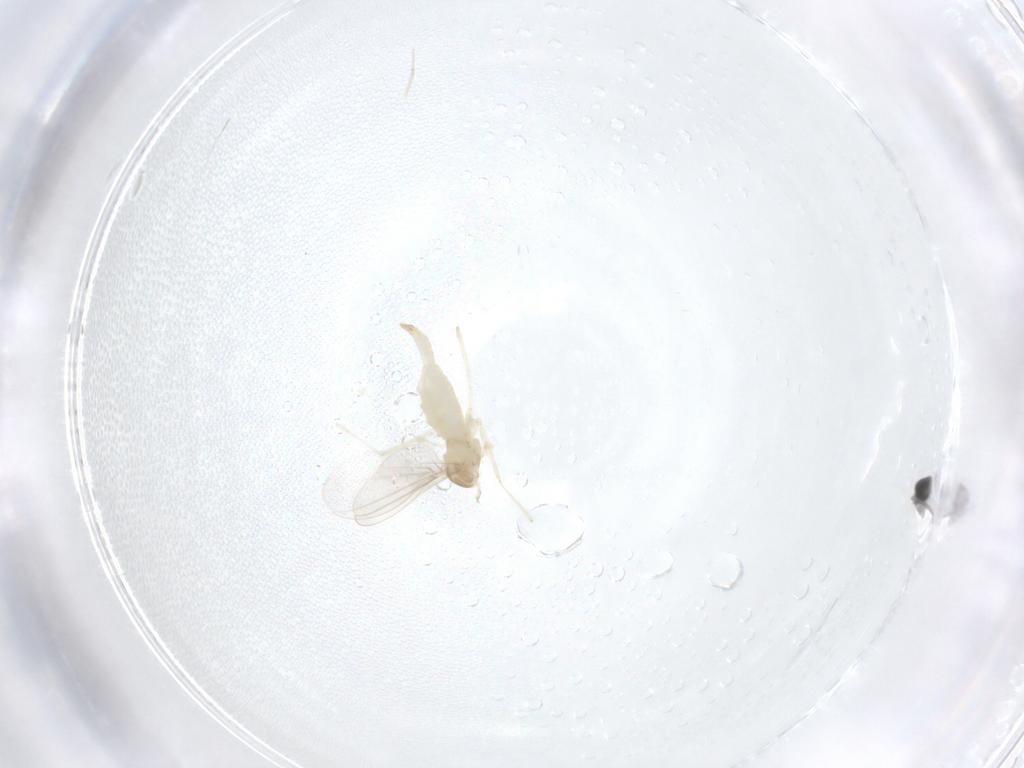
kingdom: Animalia
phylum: Arthropoda
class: Insecta
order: Diptera
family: Cecidomyiidae
